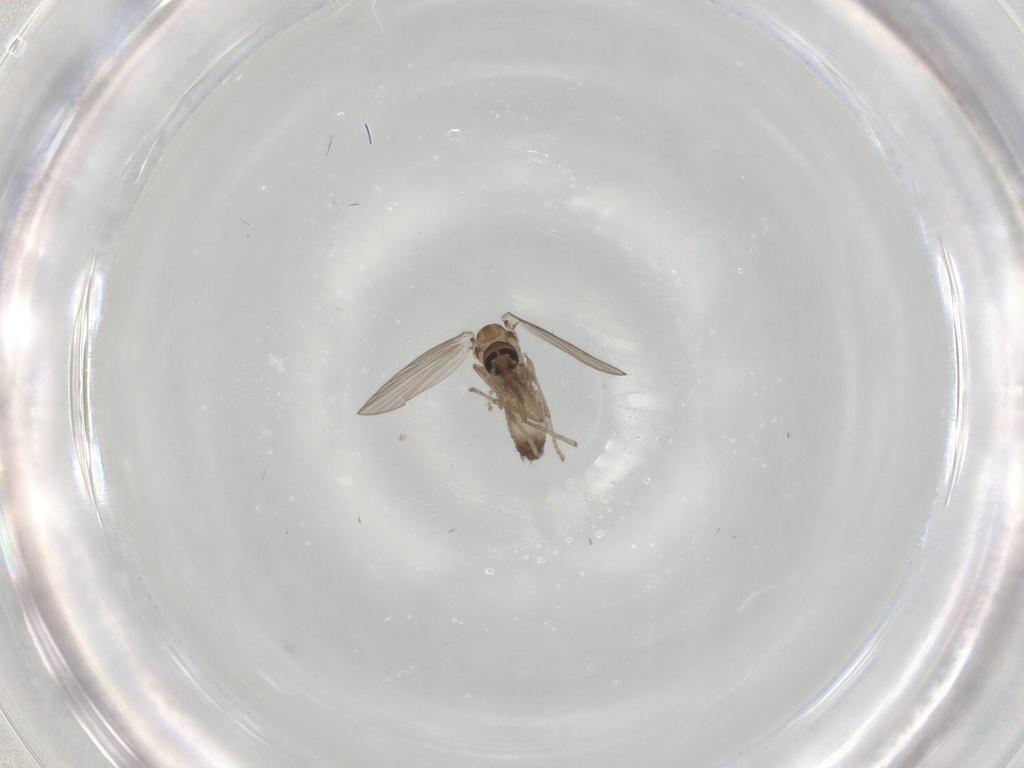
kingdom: Animalia
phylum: Arthropoda
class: Insecta
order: Diptera
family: Psychodidae
